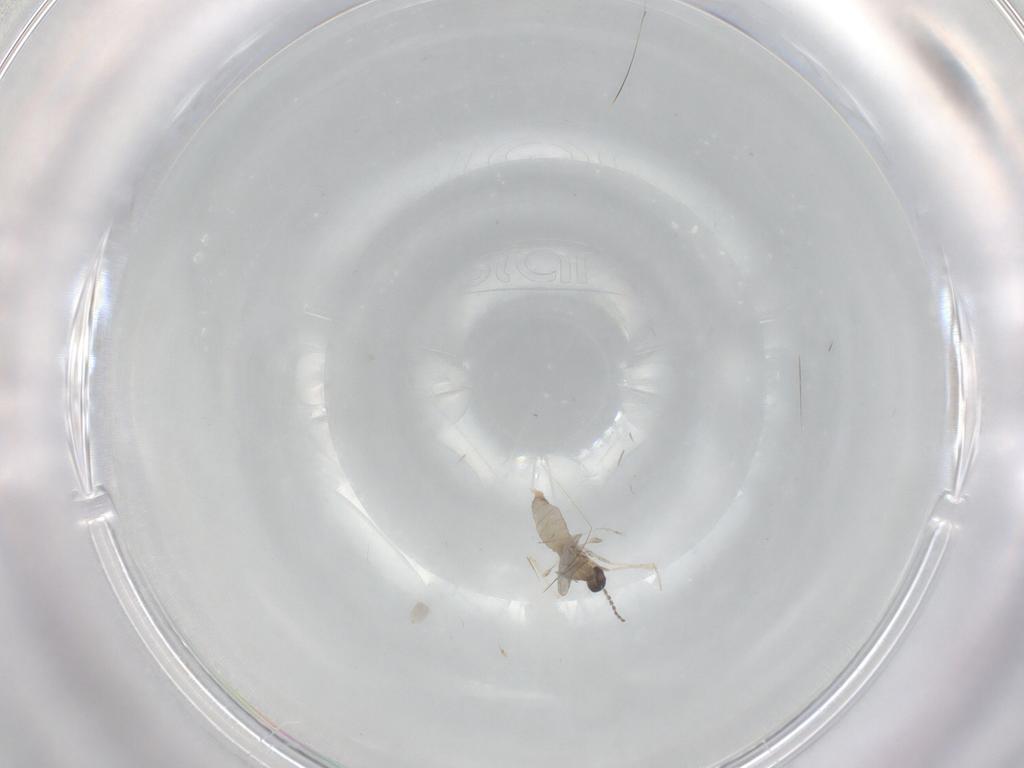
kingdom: Animalia
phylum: Arthropoda
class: Insecta
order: Diptera
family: Cecidomyiidae
